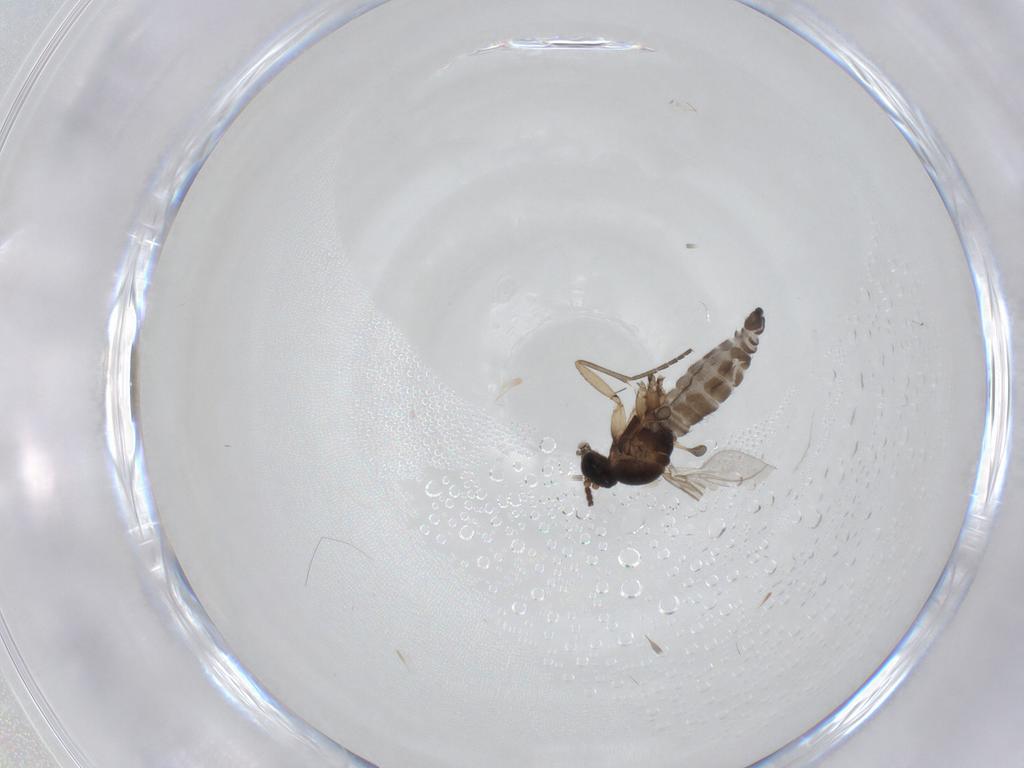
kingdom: Animalia
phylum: Arthropoda
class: Insecta
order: Diptera
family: Sciaridae
